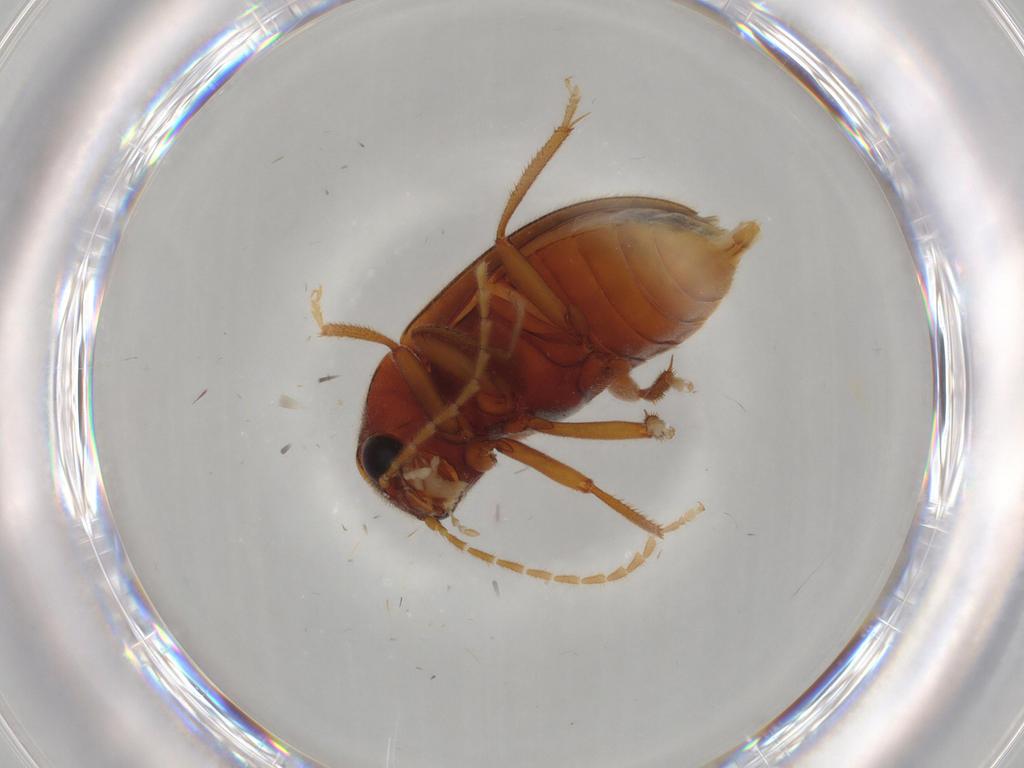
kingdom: Animalia
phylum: Arthropoda
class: Insecta
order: Coleoptera
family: Ptilodactylidae
